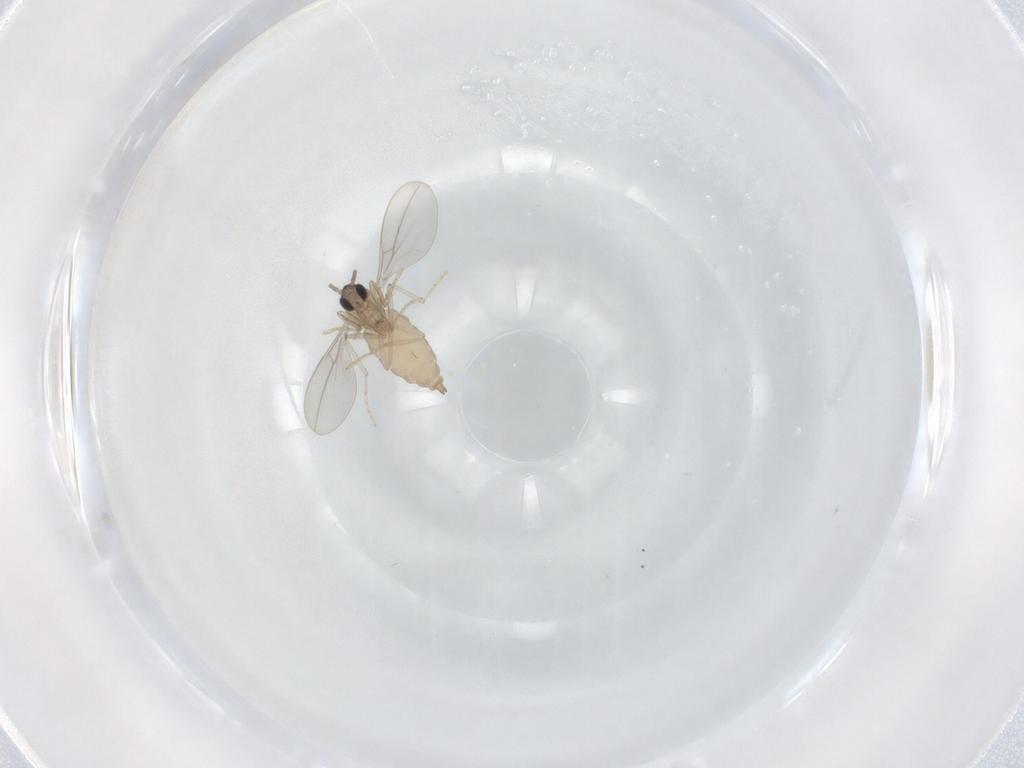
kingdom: Animalia
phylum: Arthropoda
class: Insecta
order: Diptera
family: Cecidomyiidae
